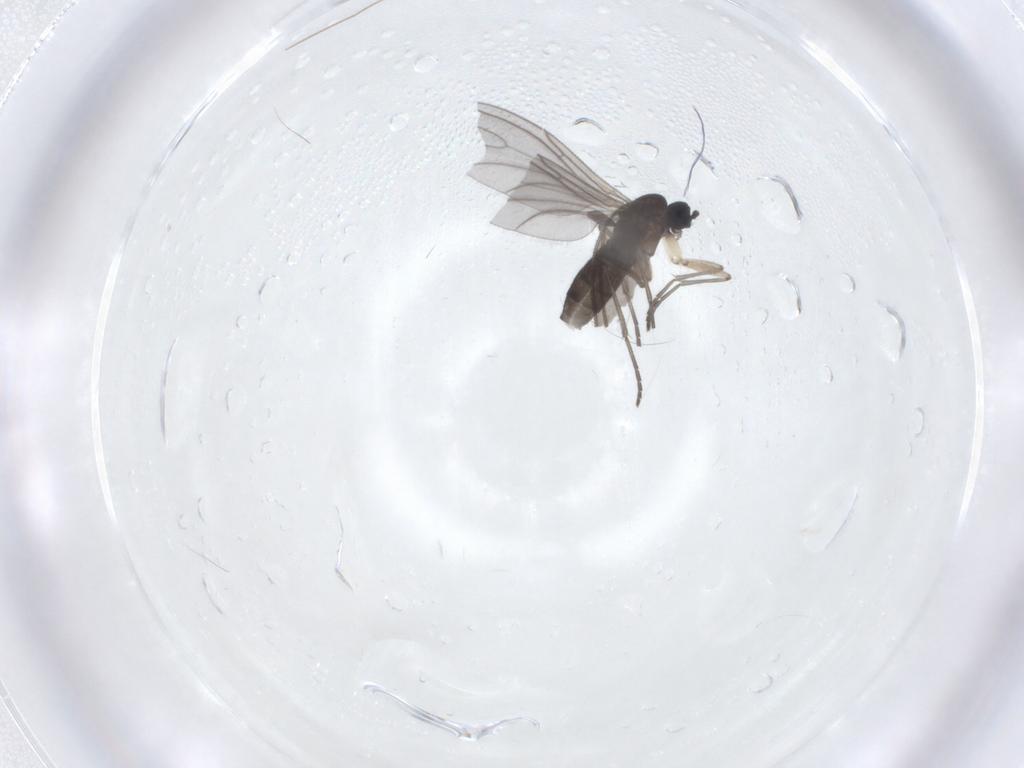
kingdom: Animalia
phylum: Arthropoda
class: Insecta
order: Diptera
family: Sciaridae
